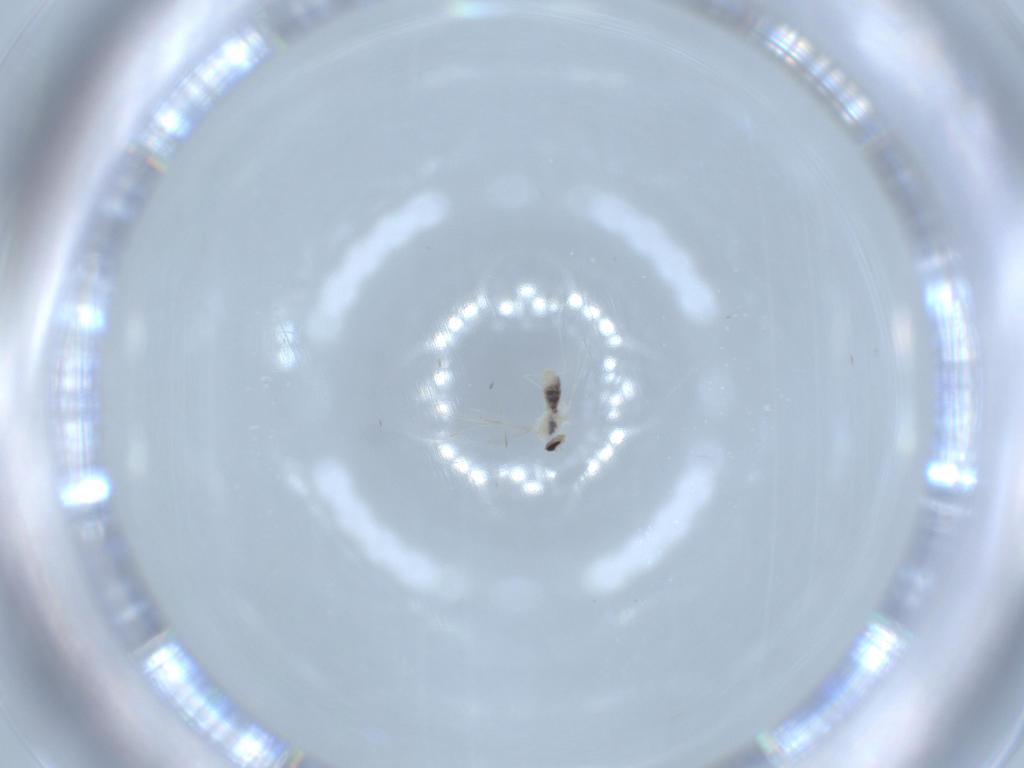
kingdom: Animalia
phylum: Arthropoda
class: Insecta
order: Diptera
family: Cecidomyiidae
